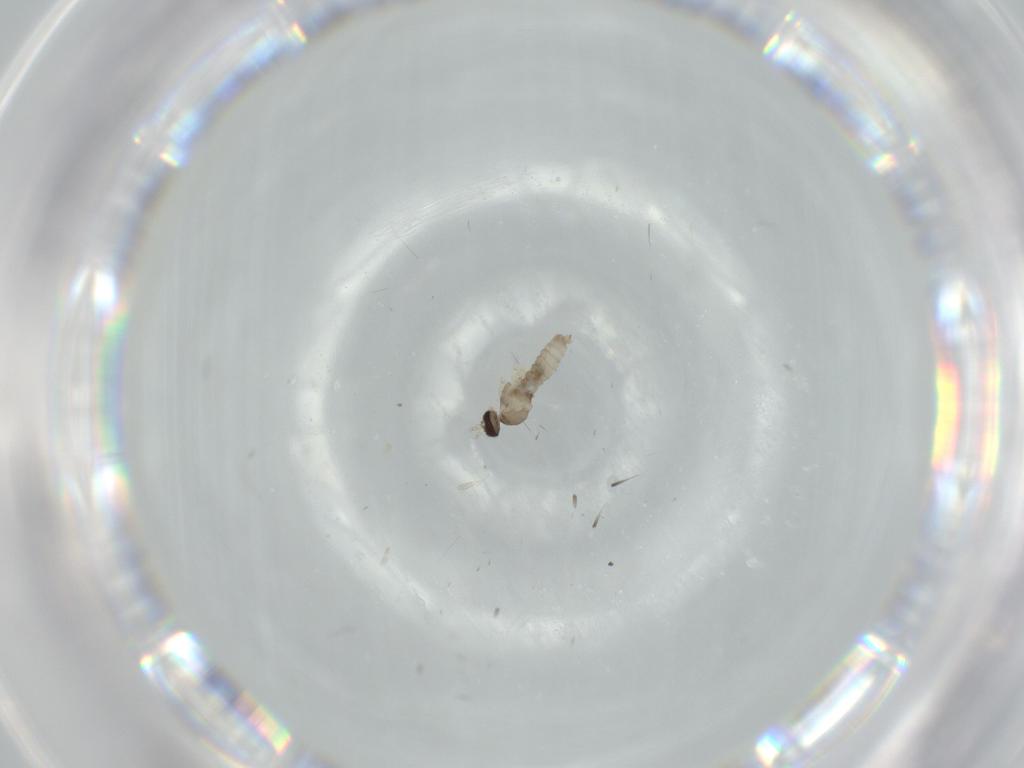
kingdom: Animalia
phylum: Arthropoda
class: Insecta
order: Diptera
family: Cecidomyiidae
